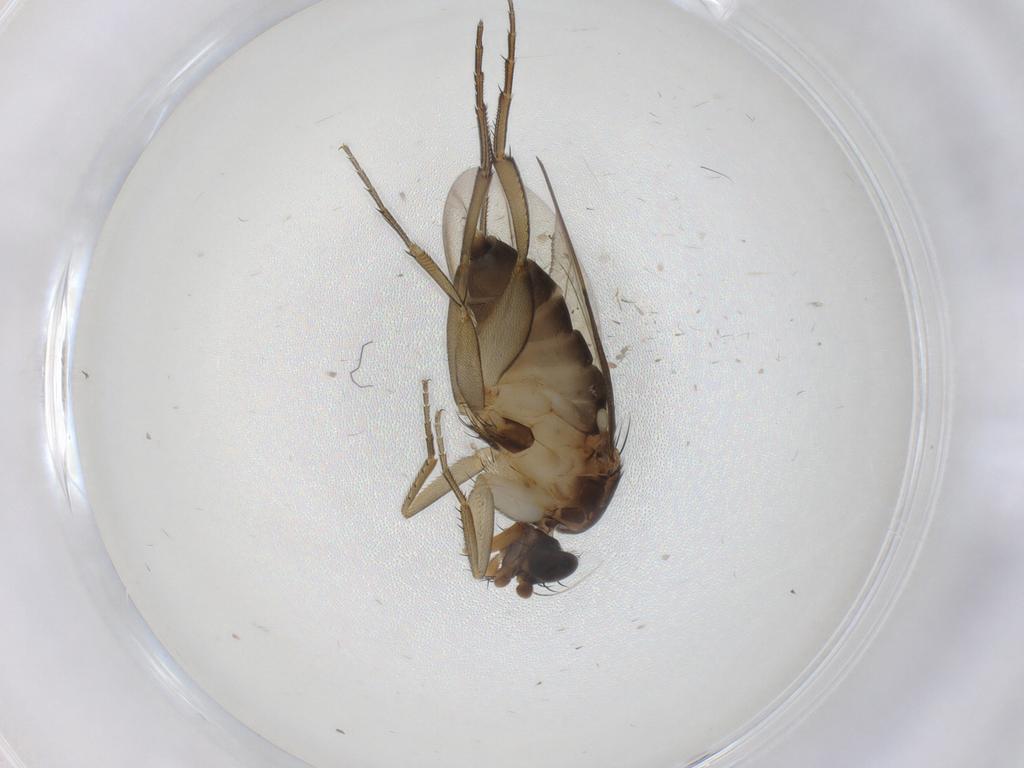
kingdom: Animalia
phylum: Arthropoda
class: Insecta
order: Diptera
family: Phoridae
